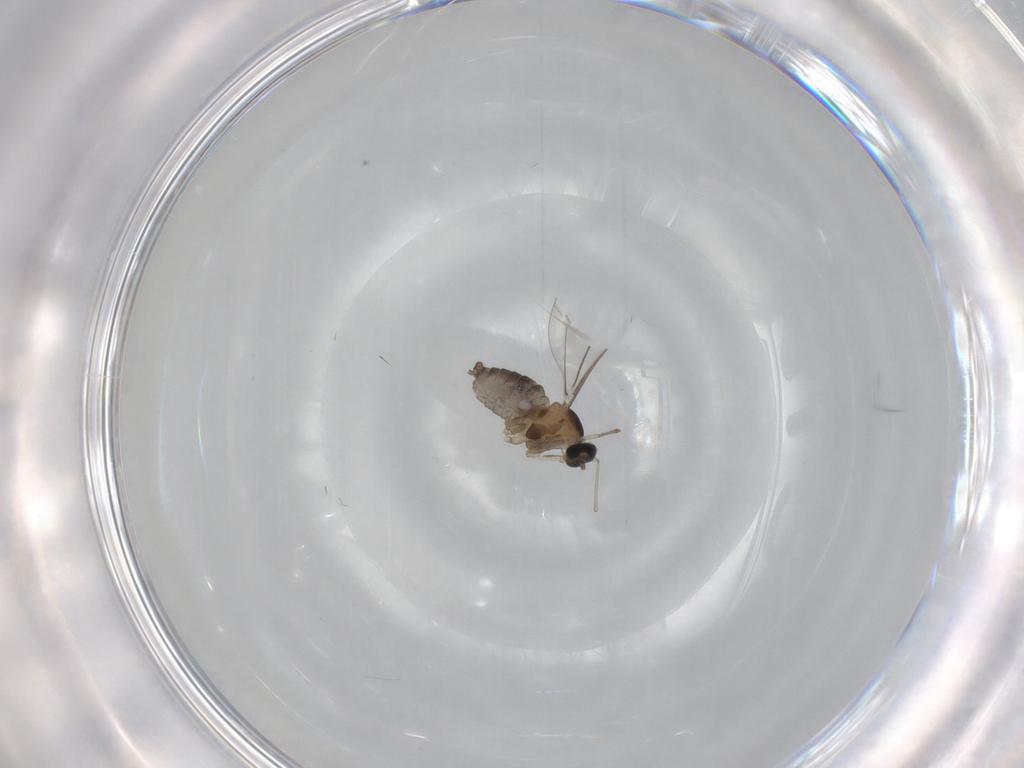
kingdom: Animalia
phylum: Arthropoda
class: Insecta
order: Diptera
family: Cecidomyiidae
